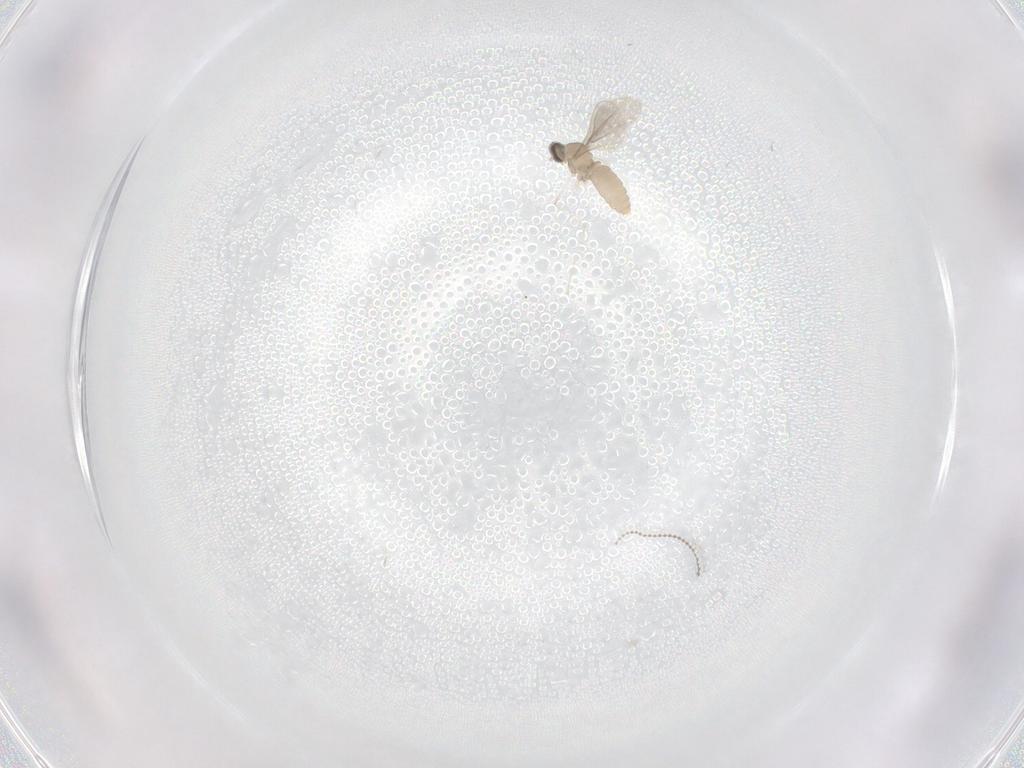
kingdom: Animalia
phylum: Arthropoda
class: Insecta
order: Diptera
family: Cecidomyiidae
